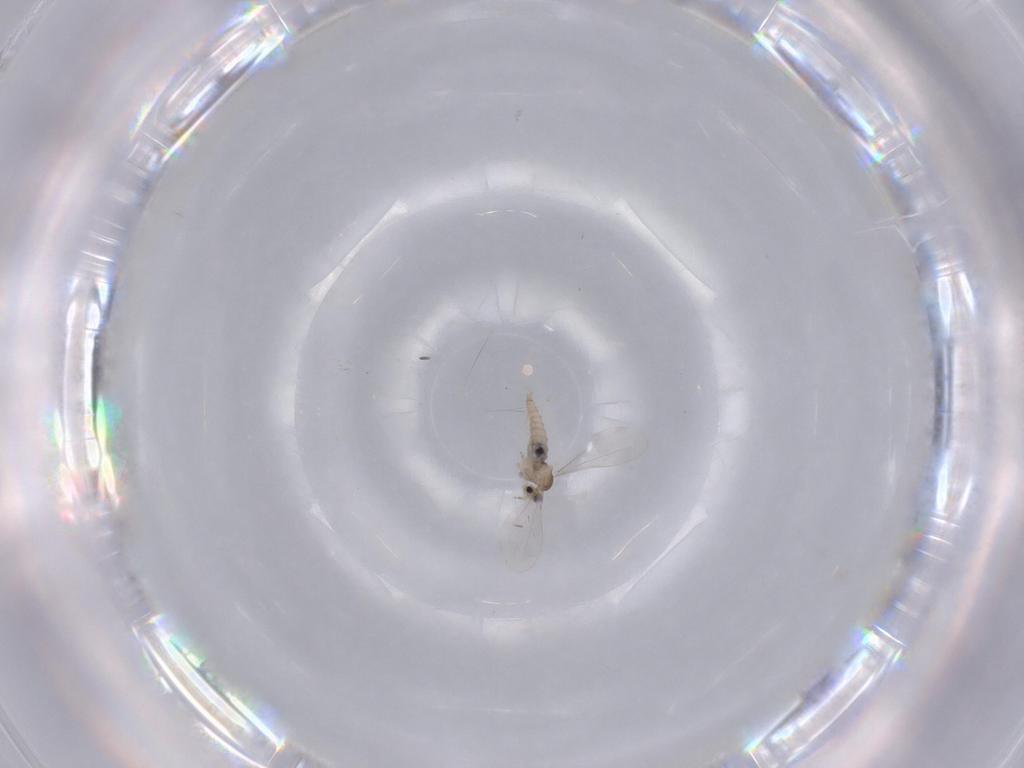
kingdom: Animalia
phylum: Arthropoda
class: Insecta
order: Diptera
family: Cecidomyiidae
